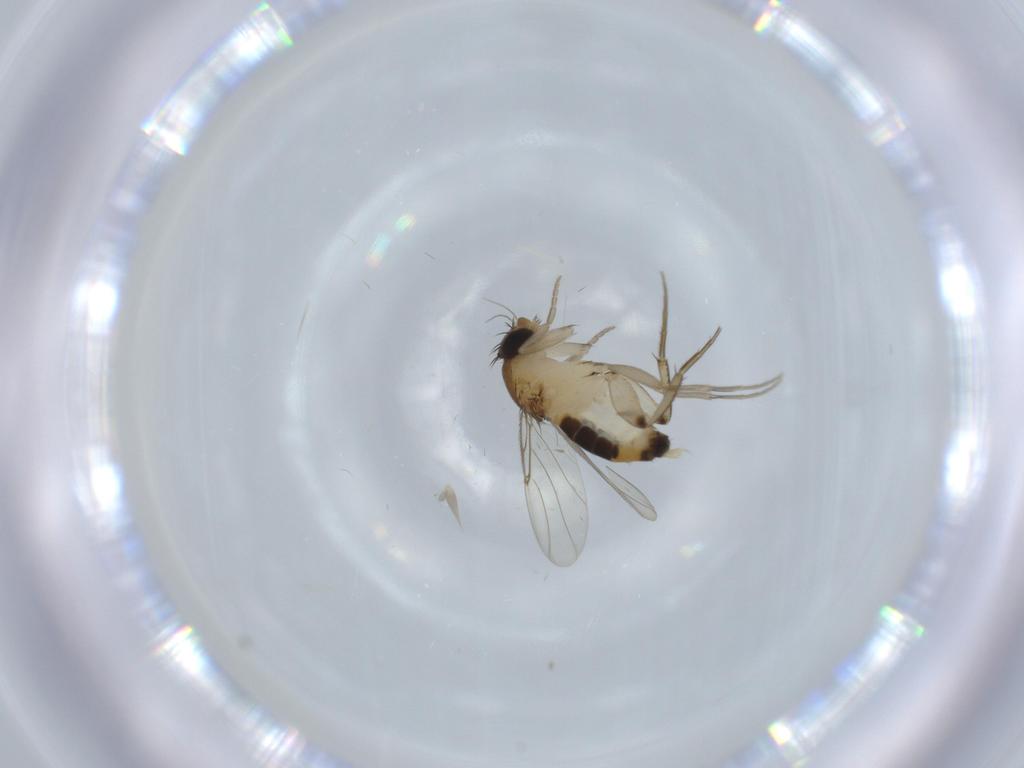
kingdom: Animalia
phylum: Arthropoda
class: Insecta
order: Diptera
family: Phoridae
